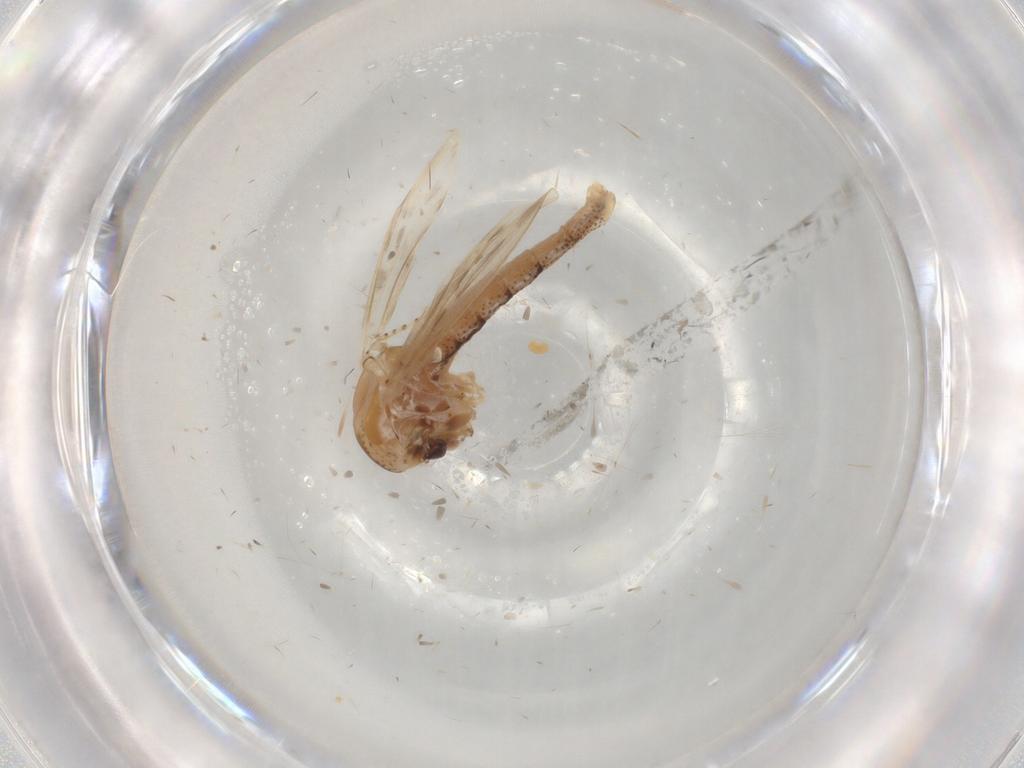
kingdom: Animalia
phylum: Arthropoda
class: Insecta
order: Diptera
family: Chaoboridae
